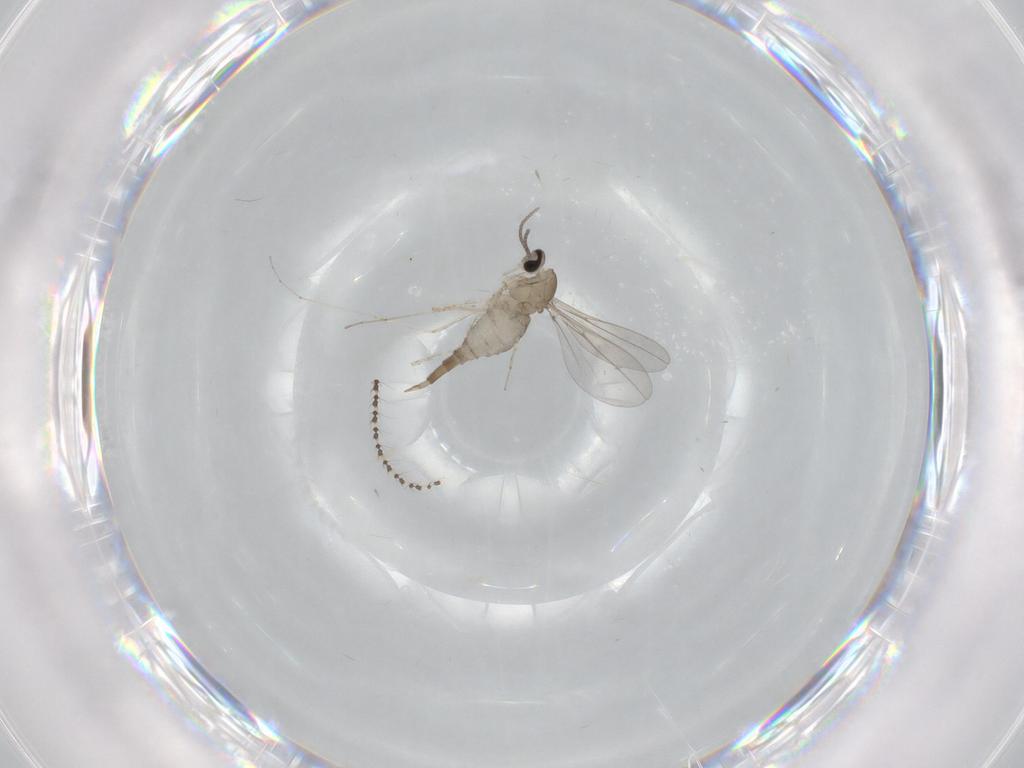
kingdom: Animalia
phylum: Arthropoda
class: Insecta
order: Diptera
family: Cecidomyiidae
